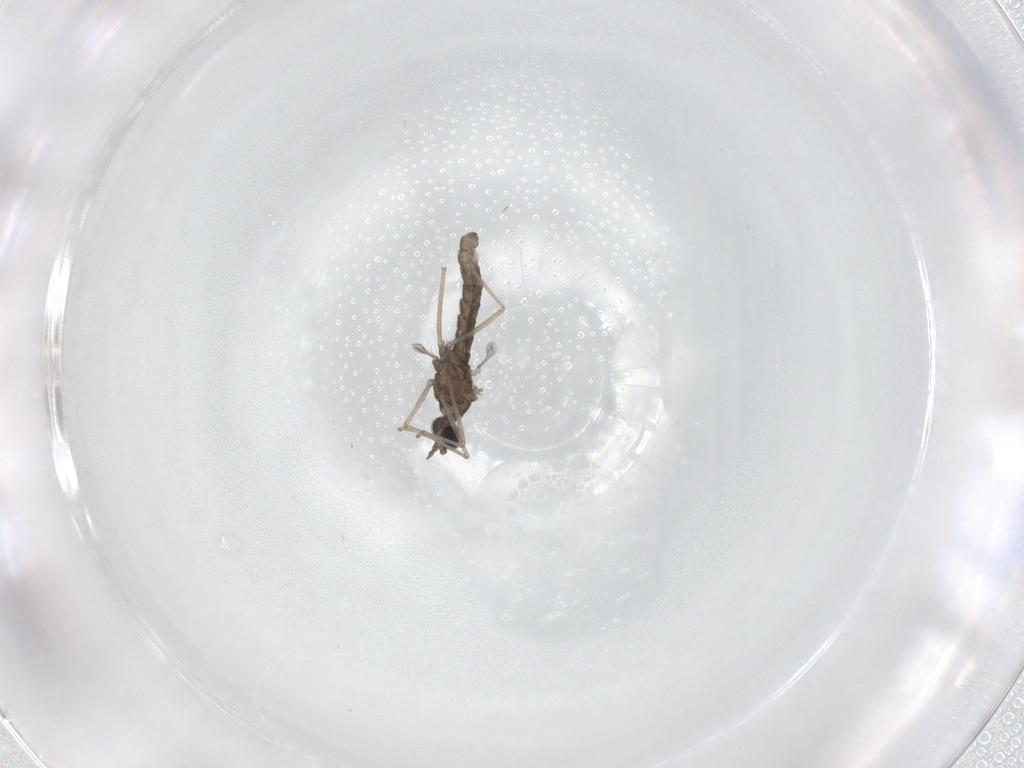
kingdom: Animalia
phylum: Arthropoda
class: Insecta
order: Diptera
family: Cecidomyiidae
